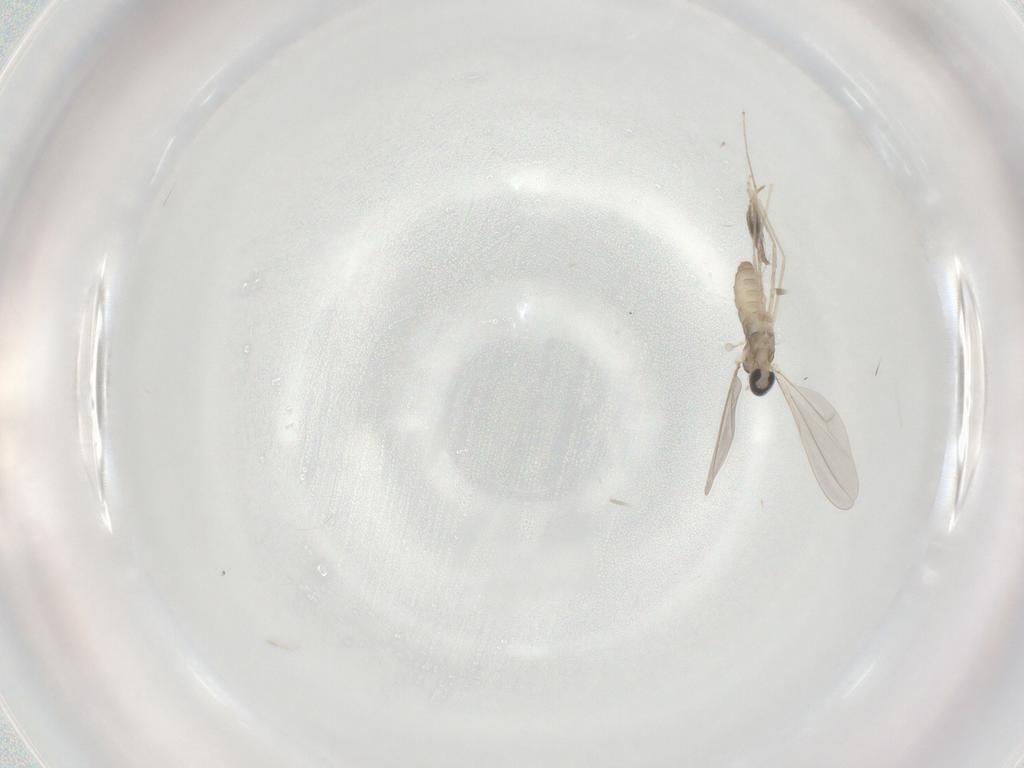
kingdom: Animalia
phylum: Arthropoda
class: Insecta
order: Diptera
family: Cecidomyiidae
